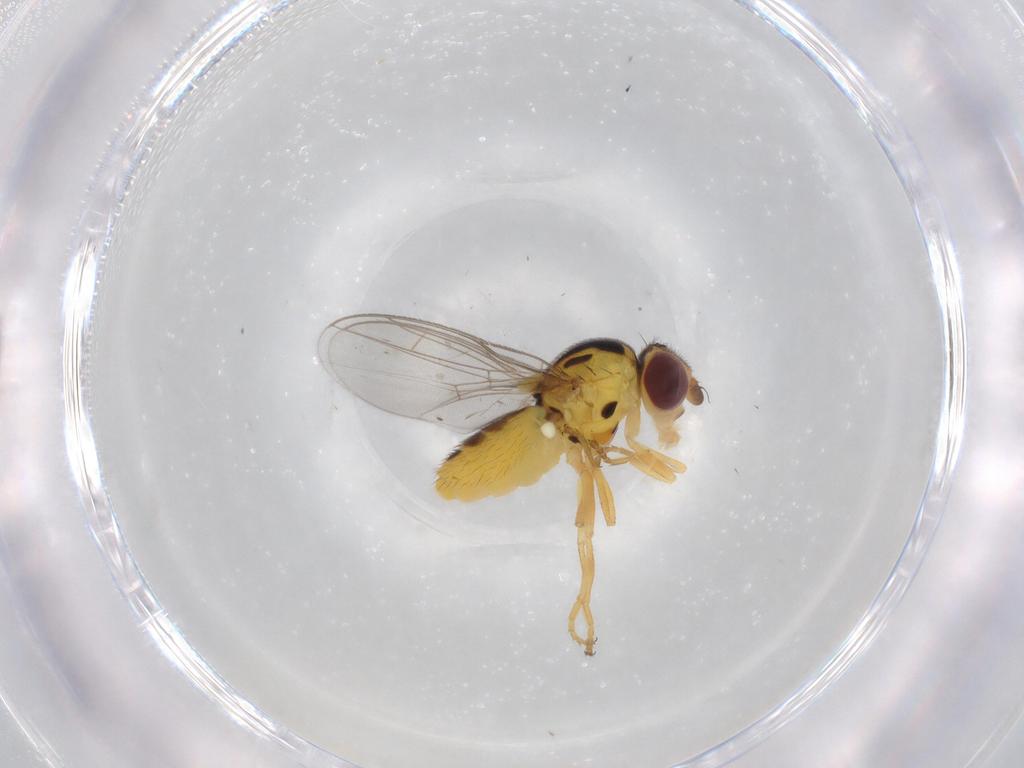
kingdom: Animalia
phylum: Arthropoda
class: Insecta
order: Diptera
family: Chloropidae
